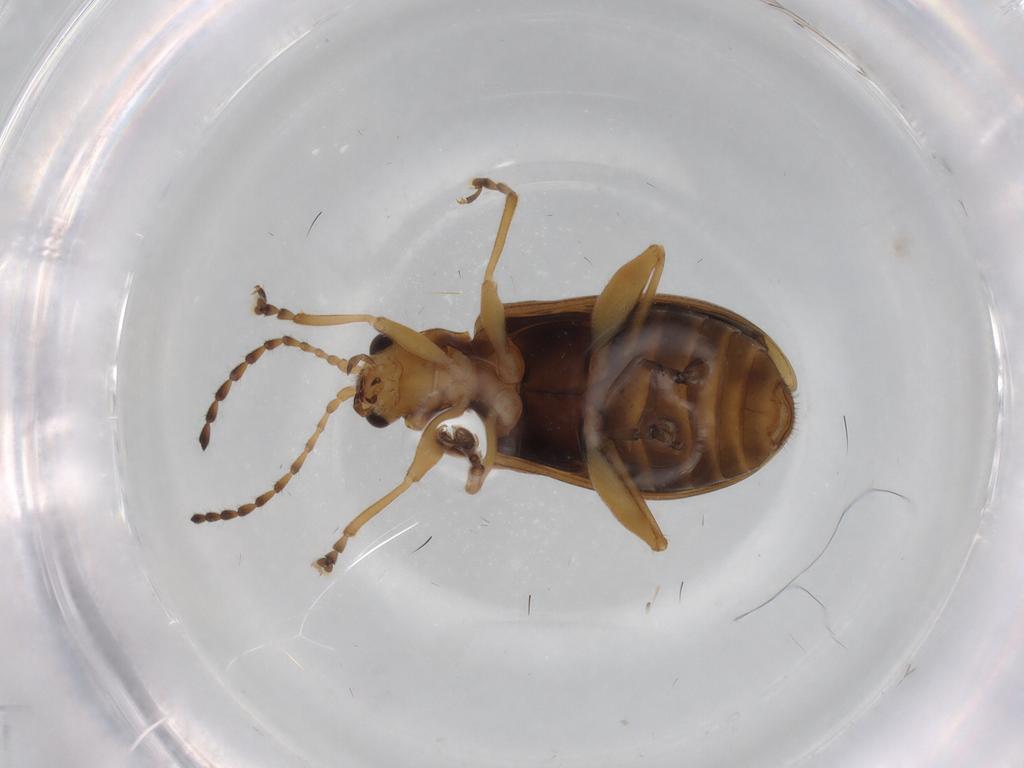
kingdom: Animalia
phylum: Arthropoda
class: Insecta
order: Coleoptera
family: Chrysomelidae
